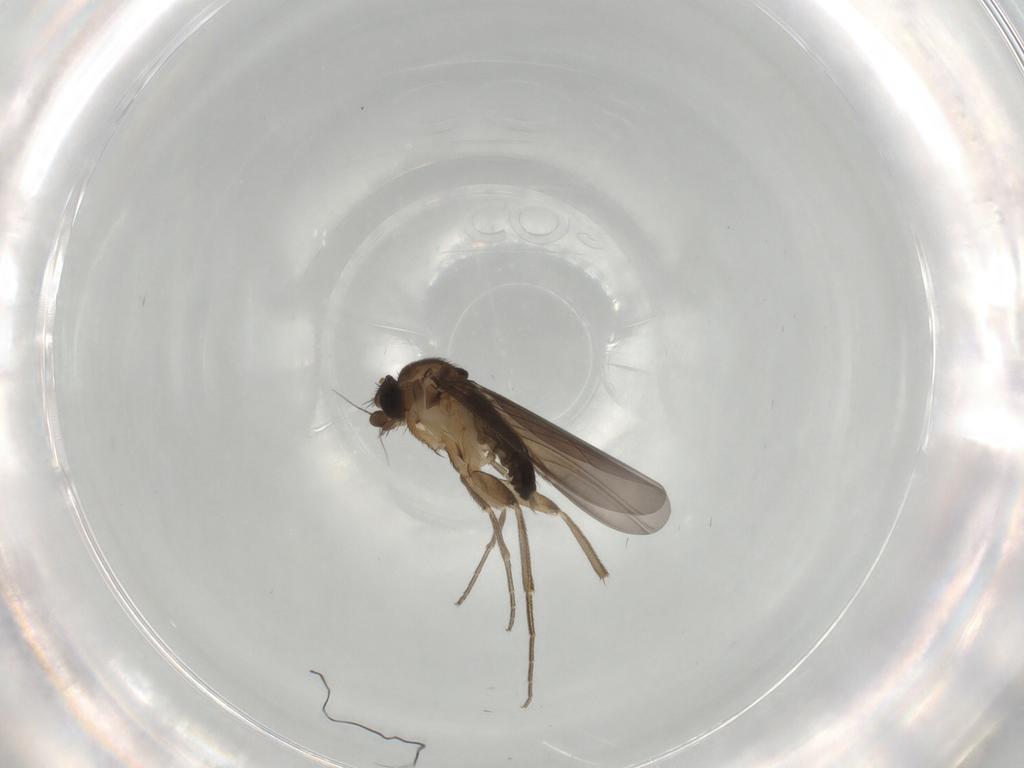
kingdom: Animalia
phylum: Arthropoda
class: Insecta
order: Diptera
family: Phoridae
